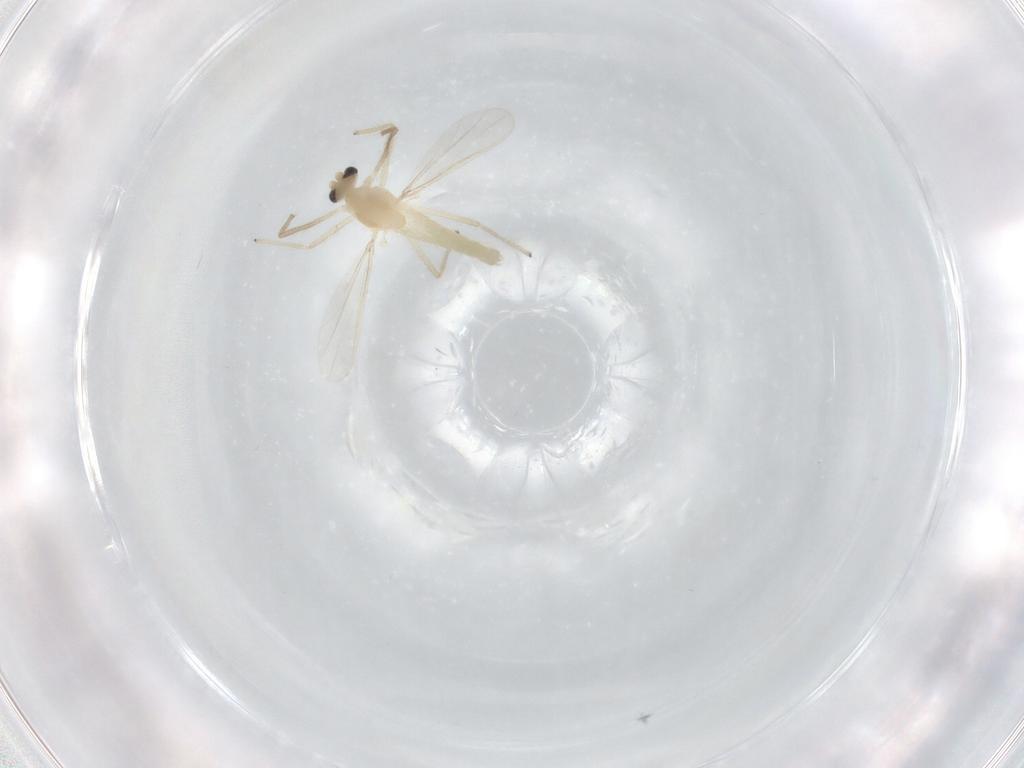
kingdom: Animalia
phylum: Arthropoda
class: Insecta
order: Diptera
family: Chironomidae
